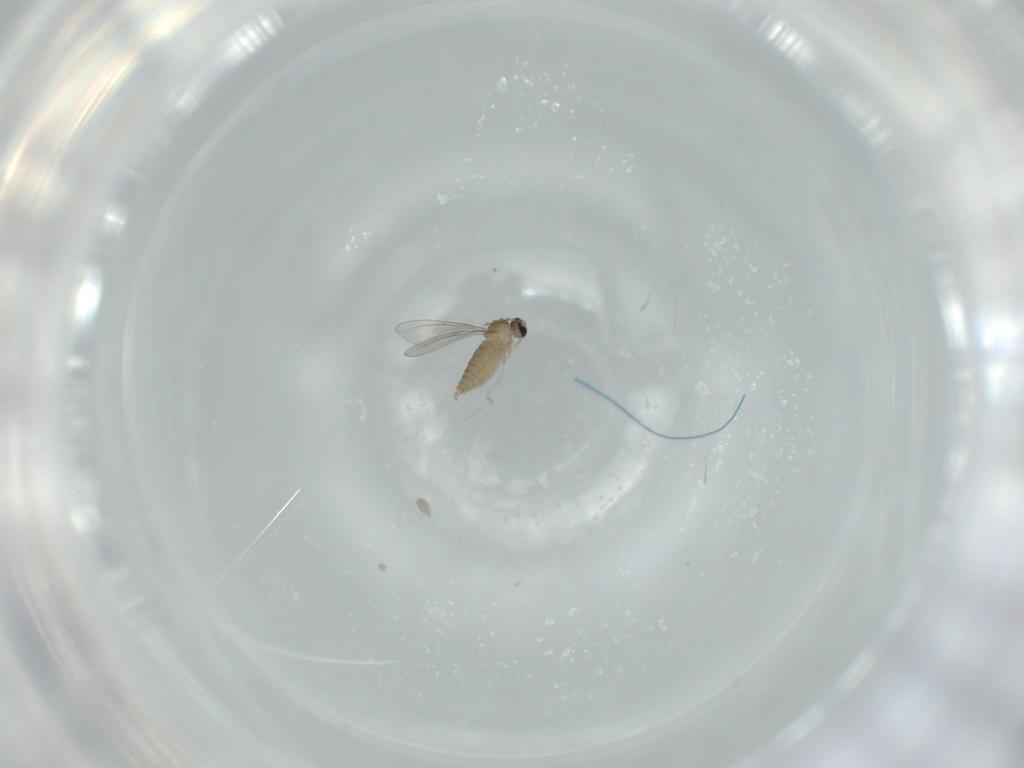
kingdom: Animalia
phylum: Arthropoda
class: Insecta
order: Diptera
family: Cecidomyiidae
